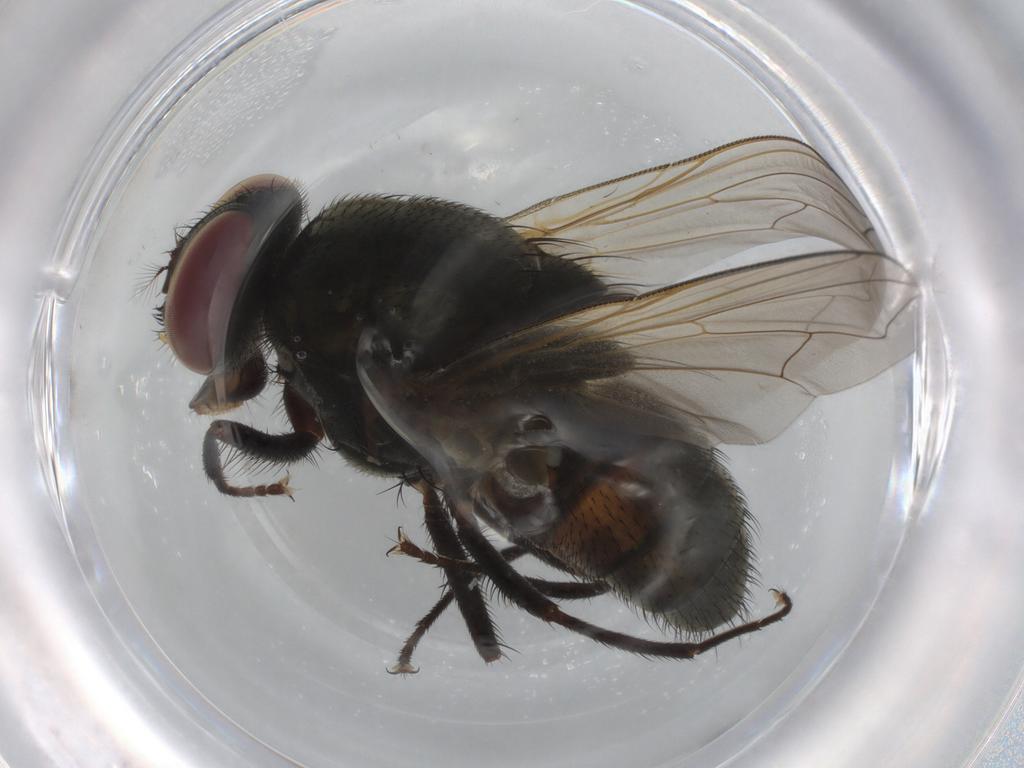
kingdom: Animalia
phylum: Arthropoda
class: Insecta
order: Diptera
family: Muscidae
